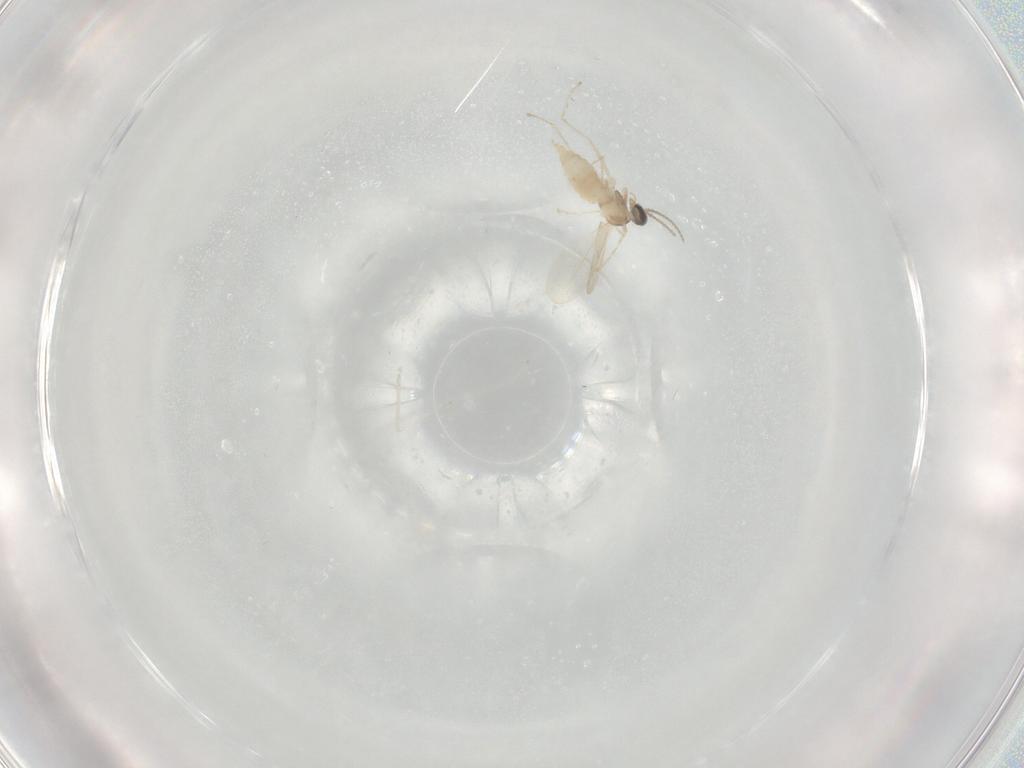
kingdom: Animalia
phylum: Arthropoda
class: Insecta
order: Diptera
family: Cecidomyiidae
